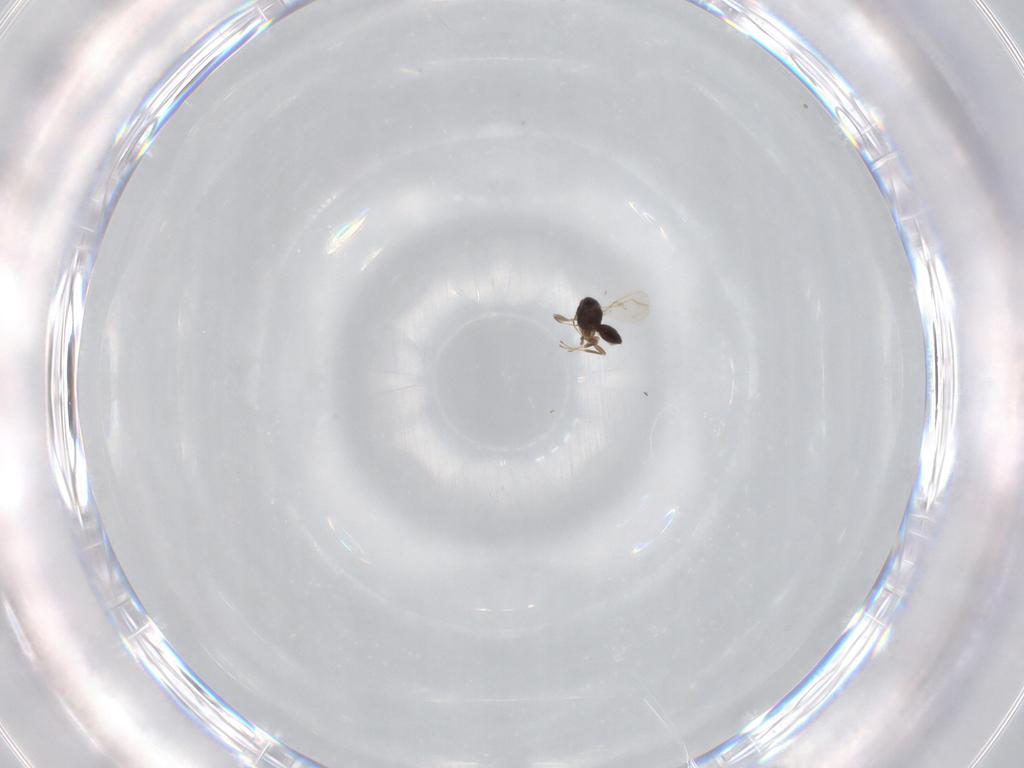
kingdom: Animalia
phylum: Arthropoda
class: Insecta
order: Hymenoptera
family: Scelionidae
